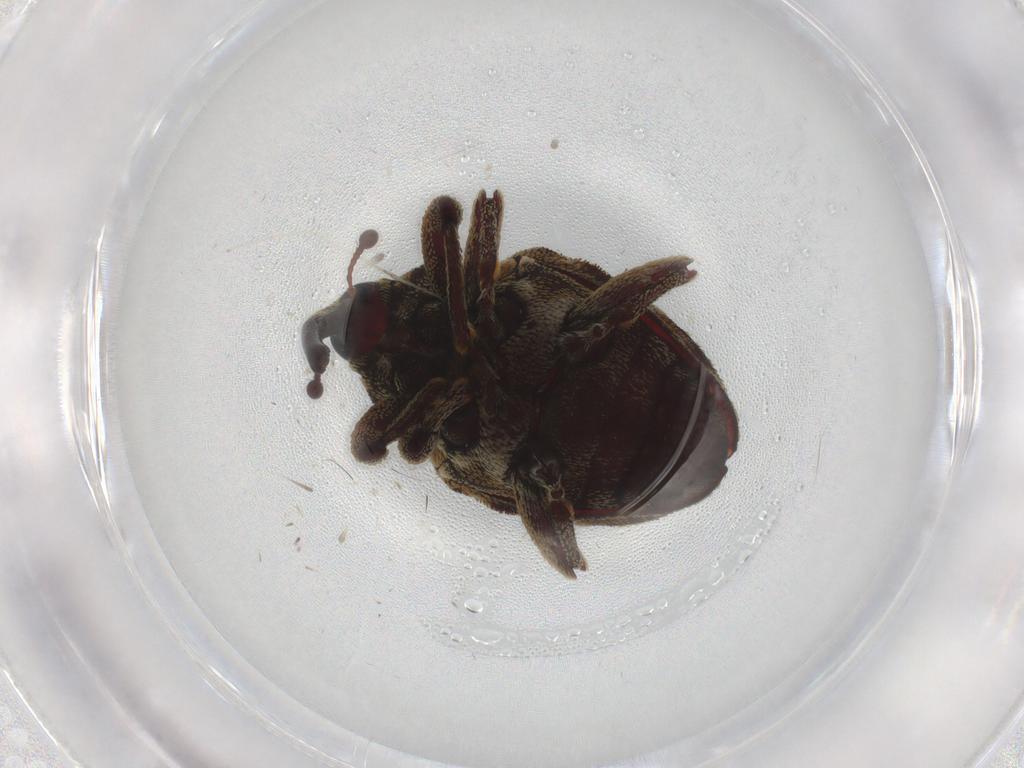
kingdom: Animalia
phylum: Arthropoda
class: Insecta
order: Coleoptera
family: Curculionidae
